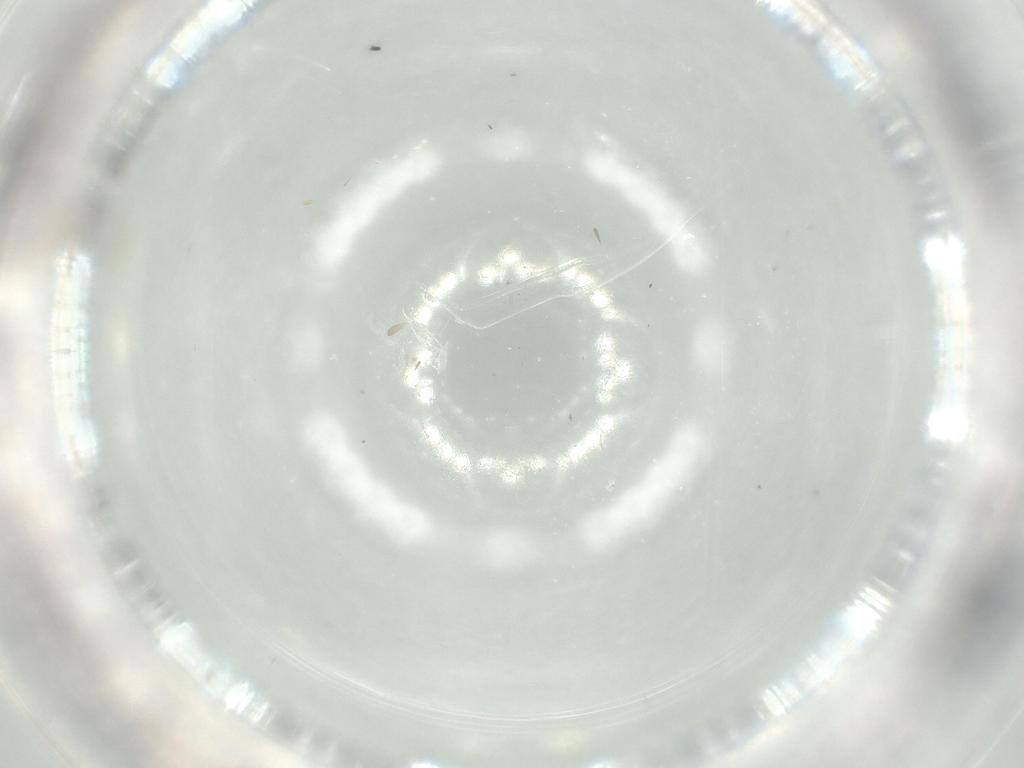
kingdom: Animalia
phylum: Arthropoda
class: Insecta
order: Diptera
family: Cecidomyiidae
